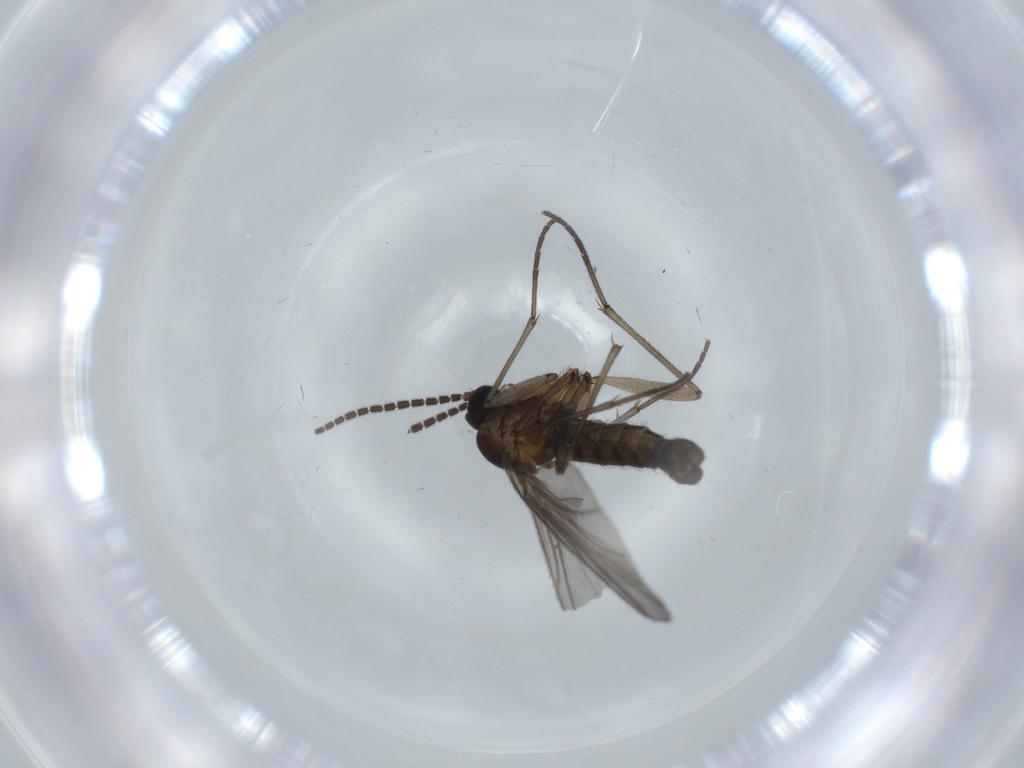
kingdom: Animalia
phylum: Arthropoda
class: Insecta
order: Diptera
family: Sciaridae
